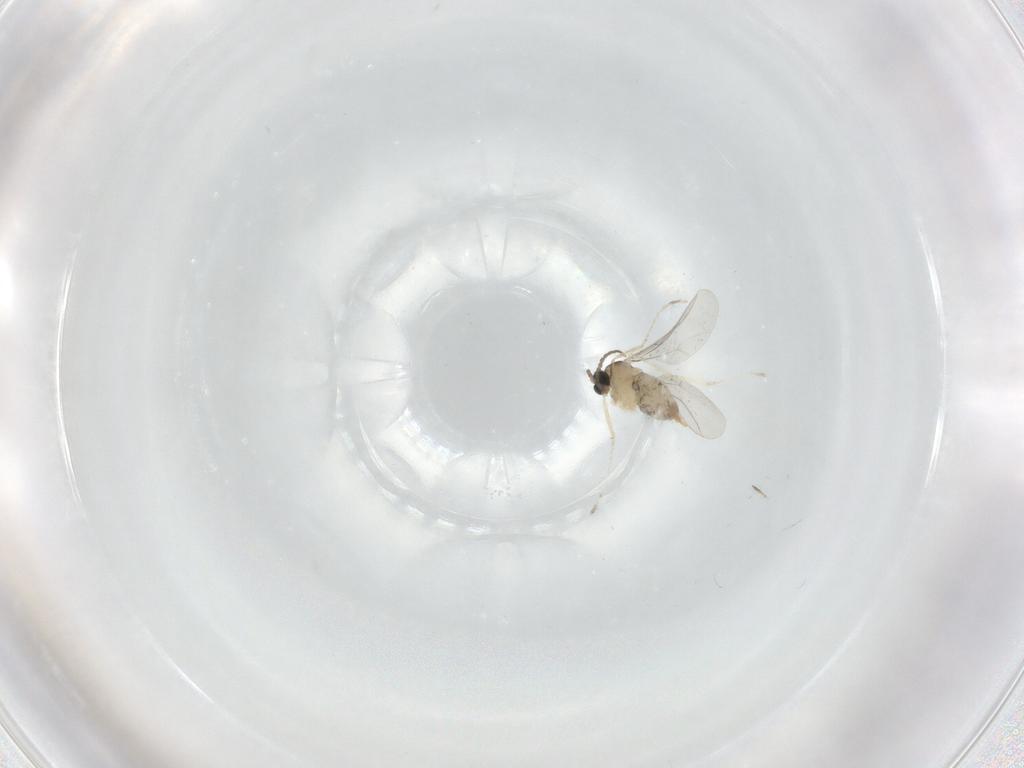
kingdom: Animalia
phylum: Arthropoda
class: Insecta
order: Diptera
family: Cecidomyiidae
